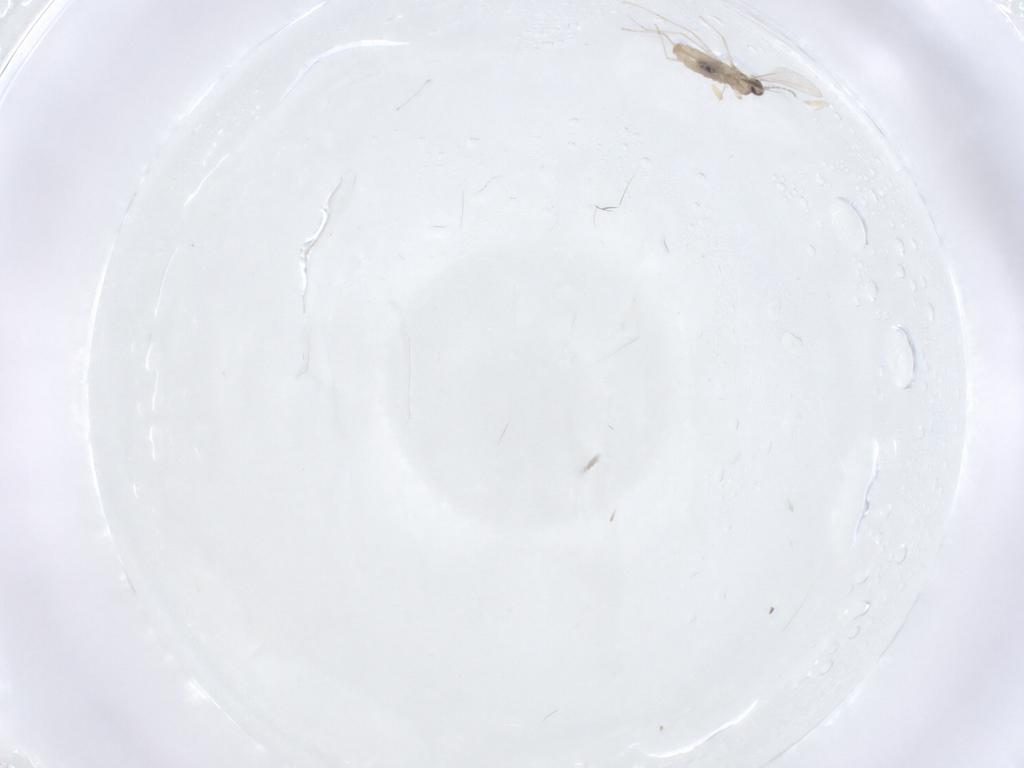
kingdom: Animalia
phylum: Arthropoda
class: Insecta
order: Diptera
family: Cecidomyiidae
